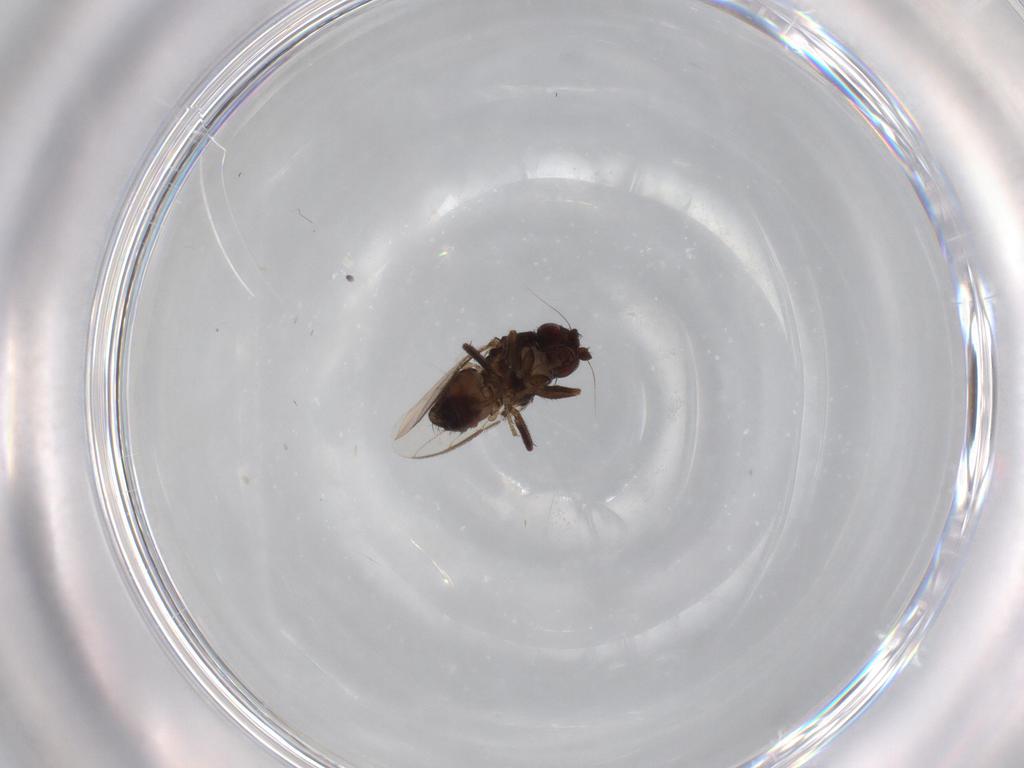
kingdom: Animalia
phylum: Arthropoda
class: Insecta
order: Diptera
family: Sphaeroceridae
